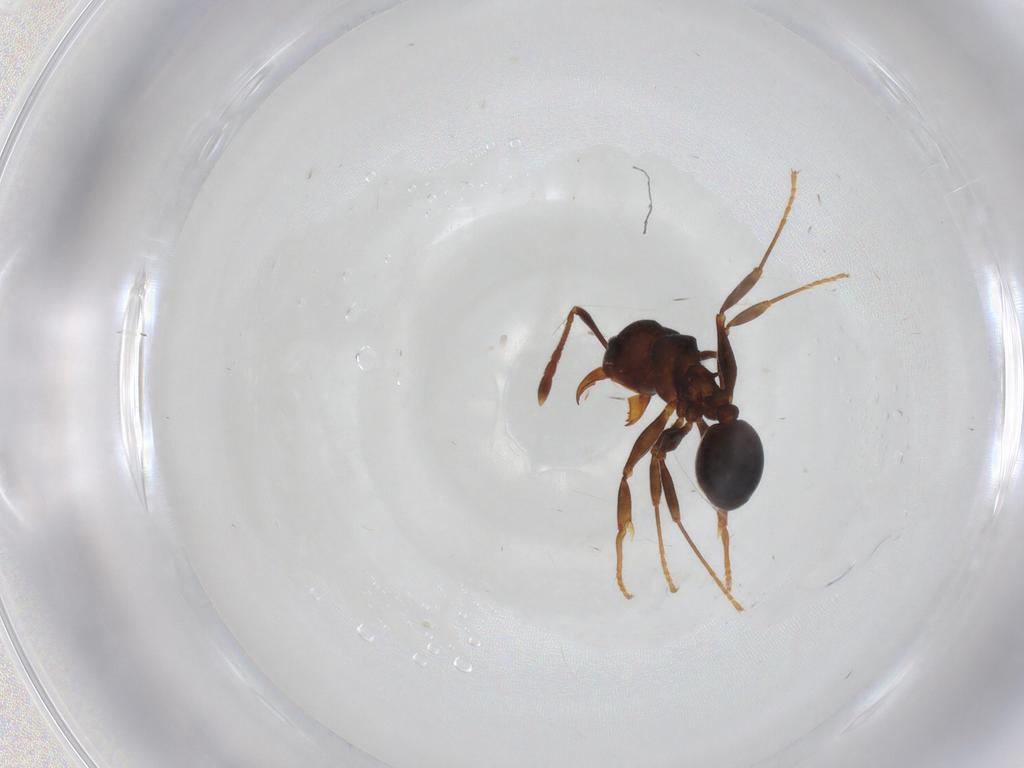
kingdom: Animalia
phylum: Arthropoda
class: Insecta
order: Hymenoptera
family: Formicidae
